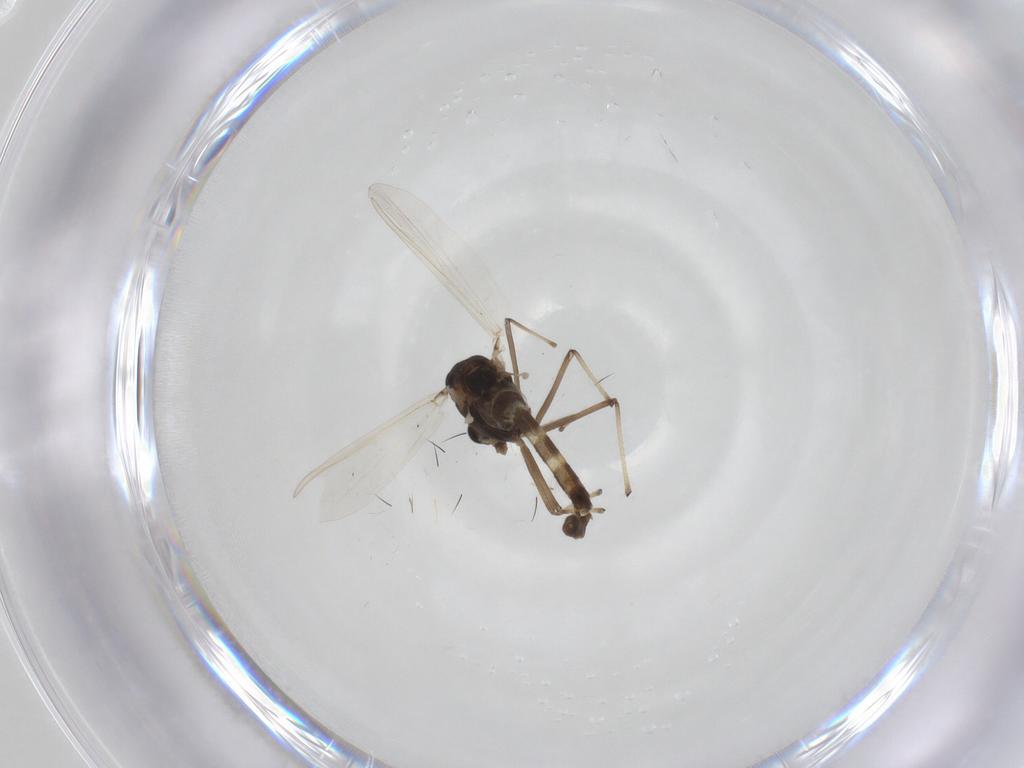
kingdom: Animalia
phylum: Arthropoda
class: Insecta
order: Diptera
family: Chironomidae
